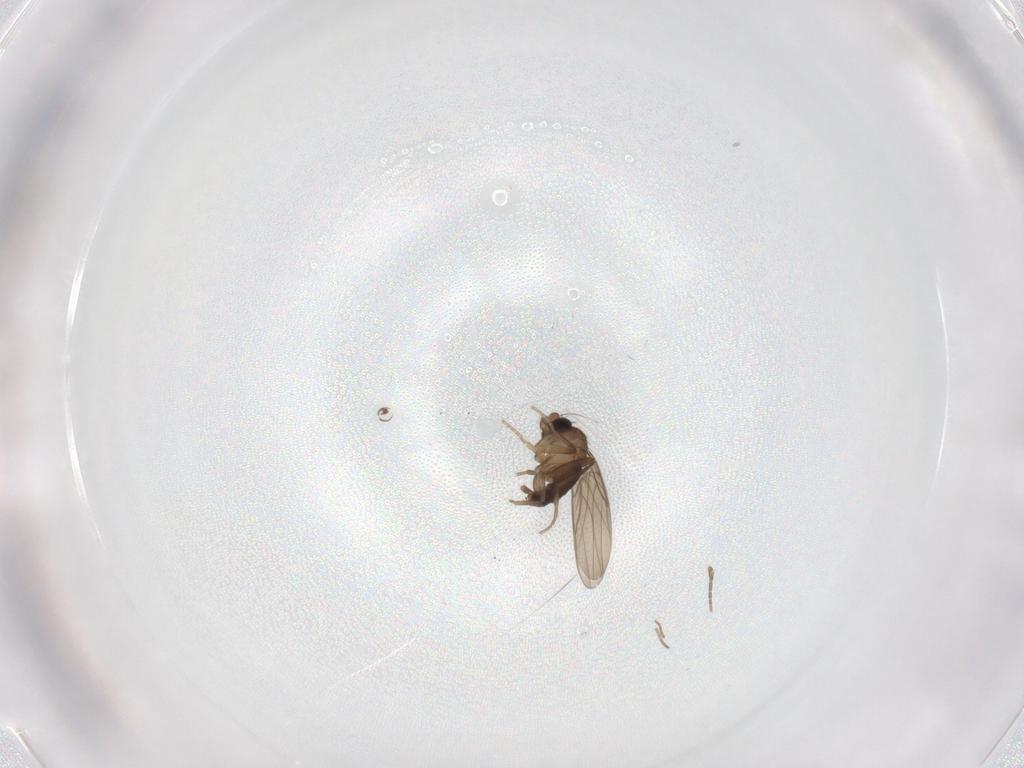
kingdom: Animalia
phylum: Arthropoda
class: Insecta
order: Diptera
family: Phoridae
